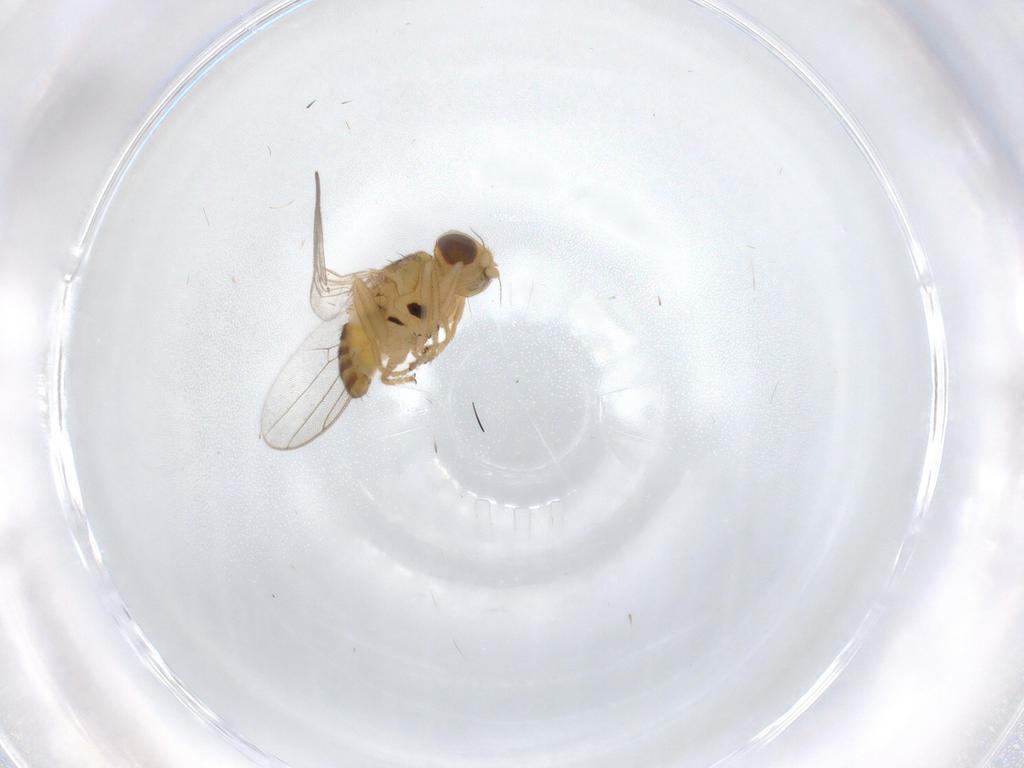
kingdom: Animalia
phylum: Arthropoda
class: Insecta
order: Diptera
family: Chloropidae
